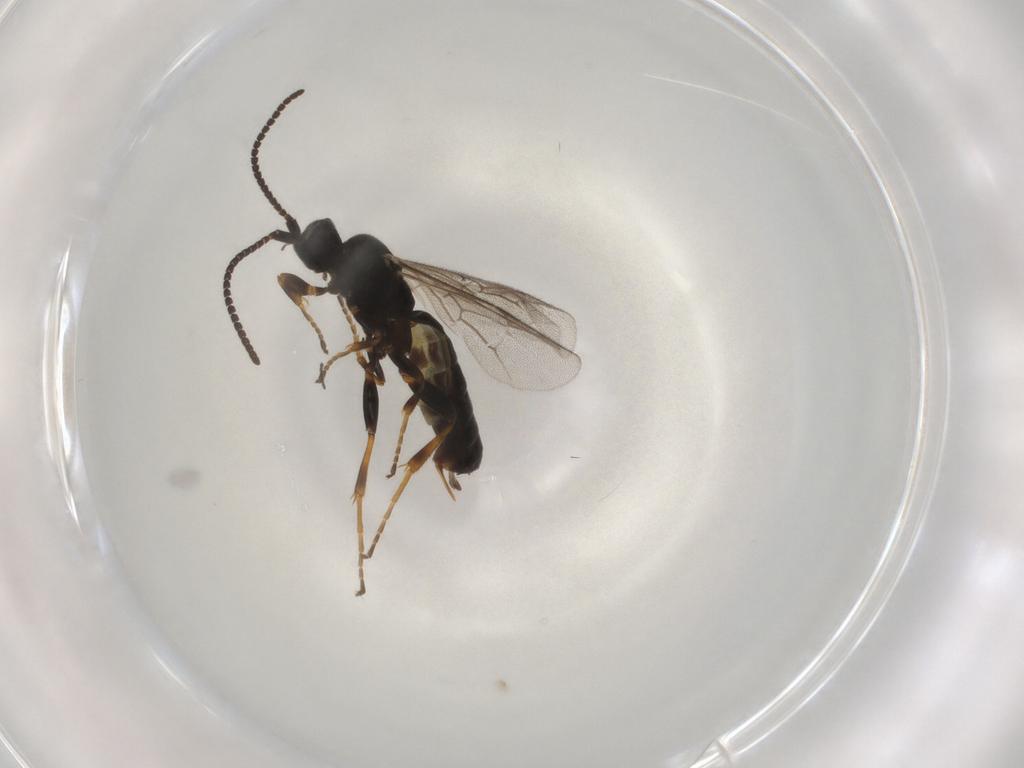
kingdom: Animalia
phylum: Arthropoda
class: Insecta
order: Hymenoptera
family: Ichneumonidae
